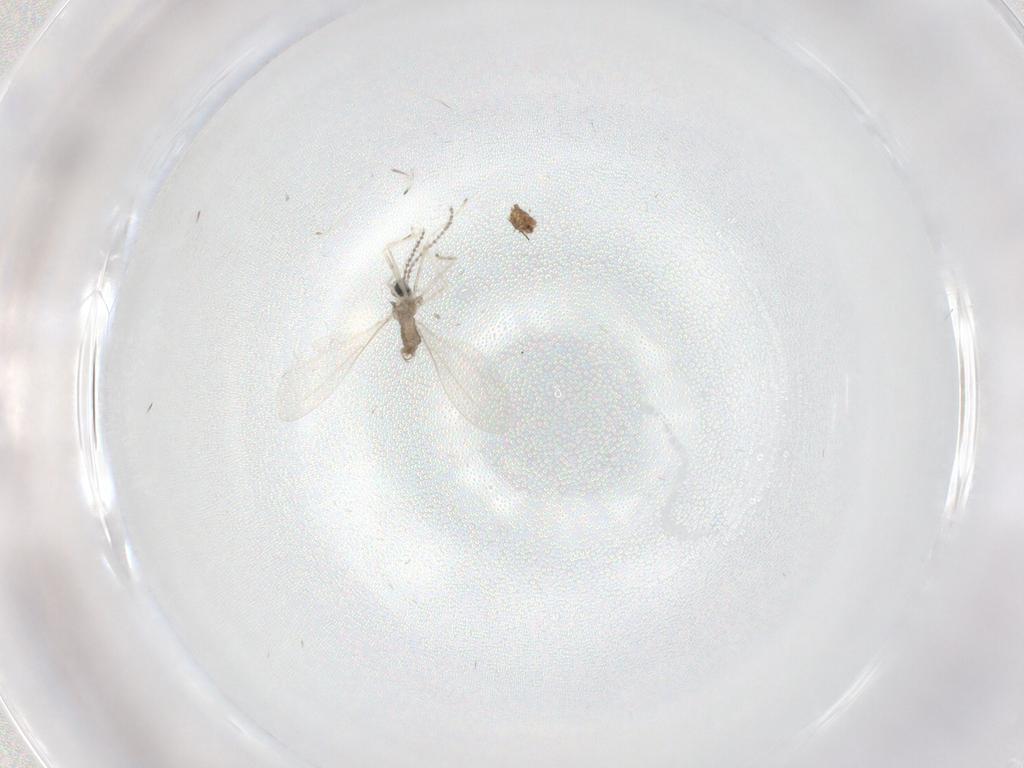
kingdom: Animalia
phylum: Arthropoda
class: Insecta
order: Diptera
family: Cecidomyiidae
